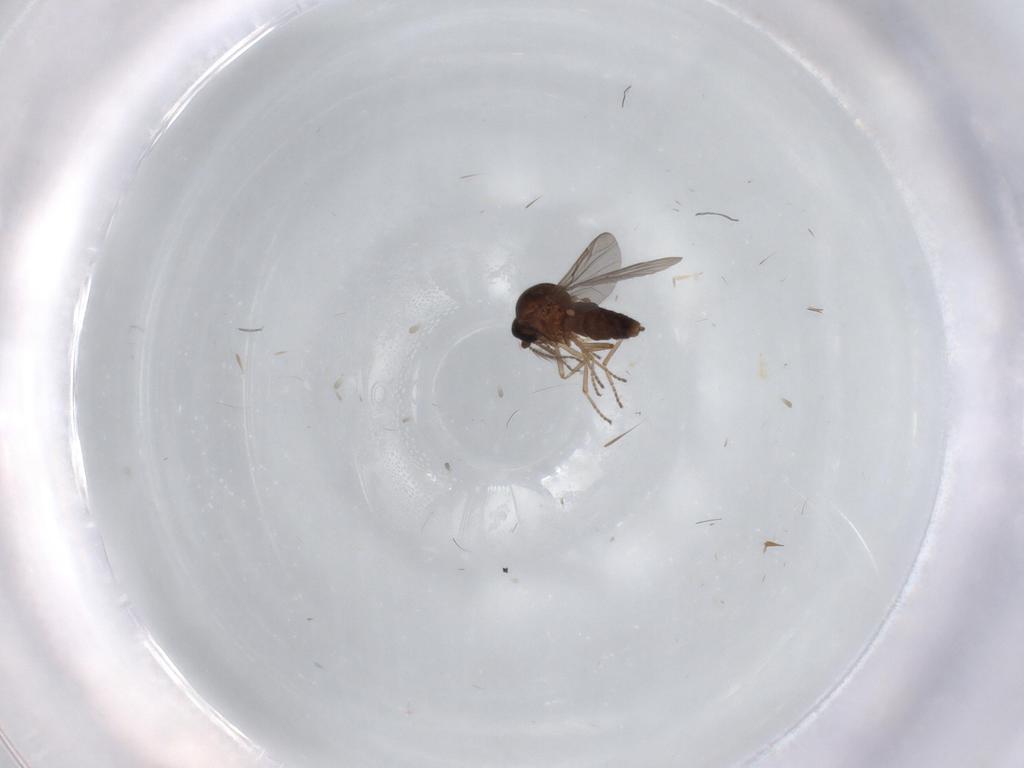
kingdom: Animalia
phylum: Arthropoda
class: Insecta
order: Diptera
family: Ceratopogonidae
